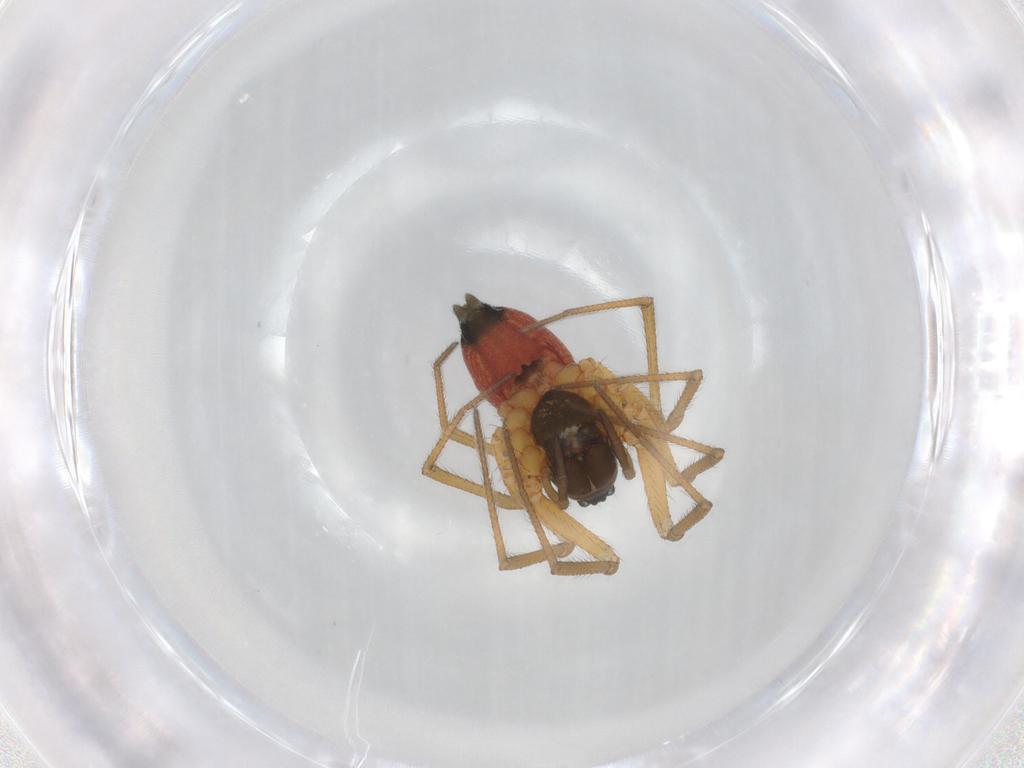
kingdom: Animalia
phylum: Arthropoda
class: Arachnida
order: Araneae
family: Linyphiidae
